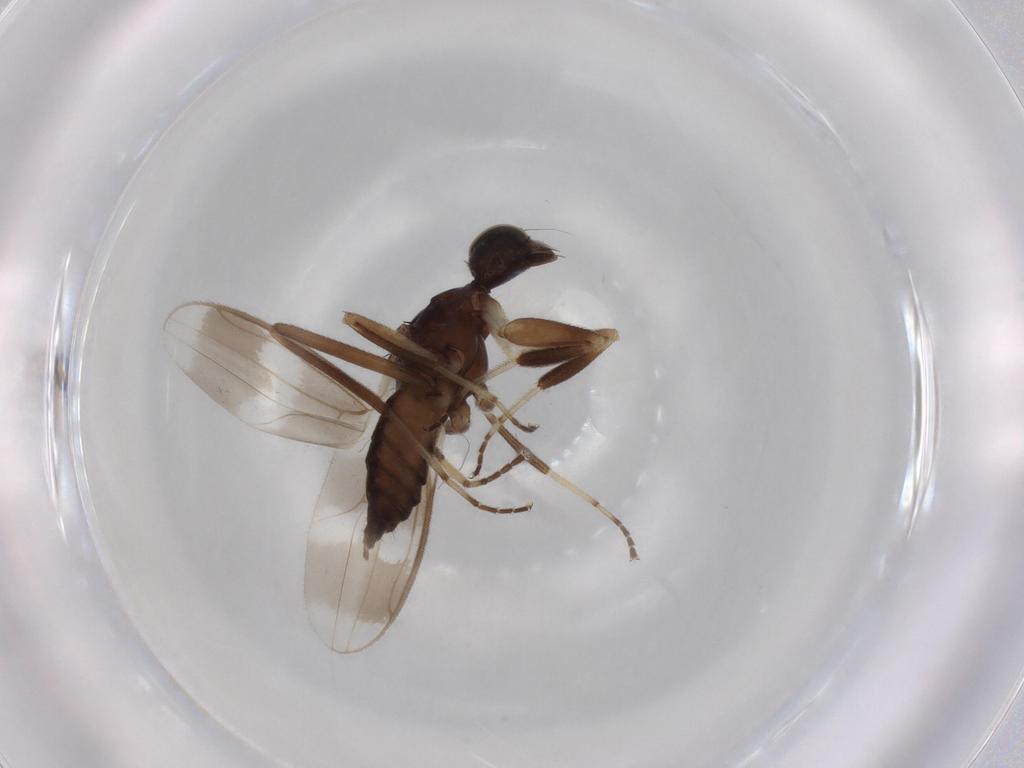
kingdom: Animalia
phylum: Arthropoda
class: Insecta
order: Diptera
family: Hybotidae
